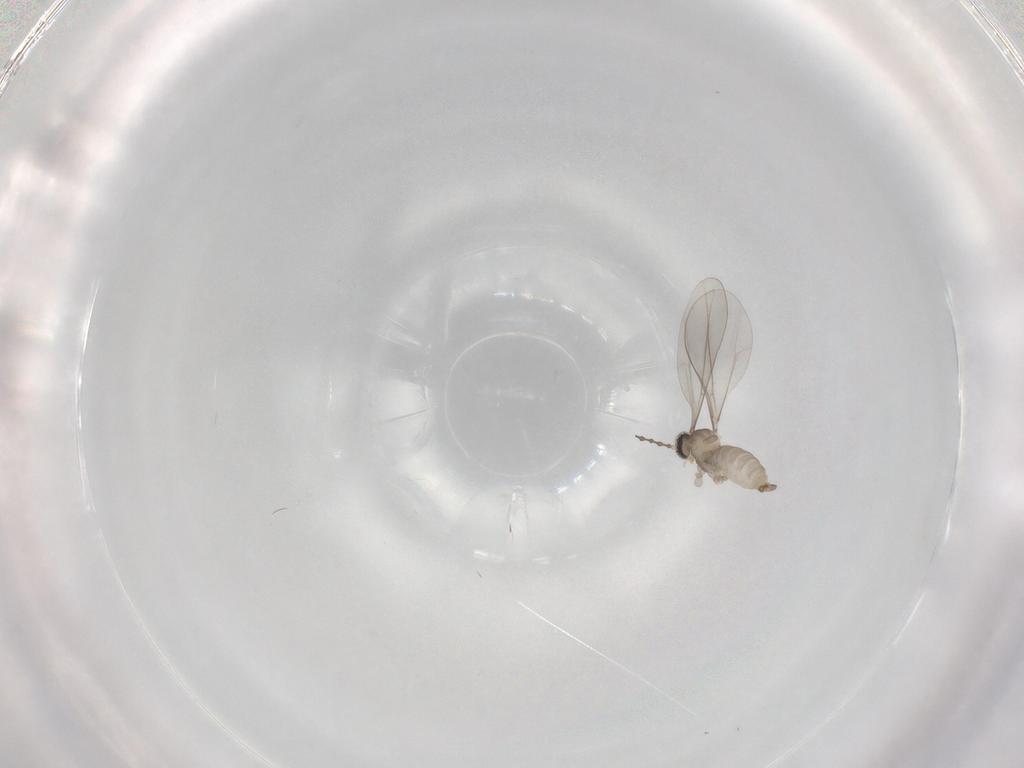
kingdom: Animalia
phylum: Arthropoda
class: Insecta
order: Diptera
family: Cecidomyiidae
